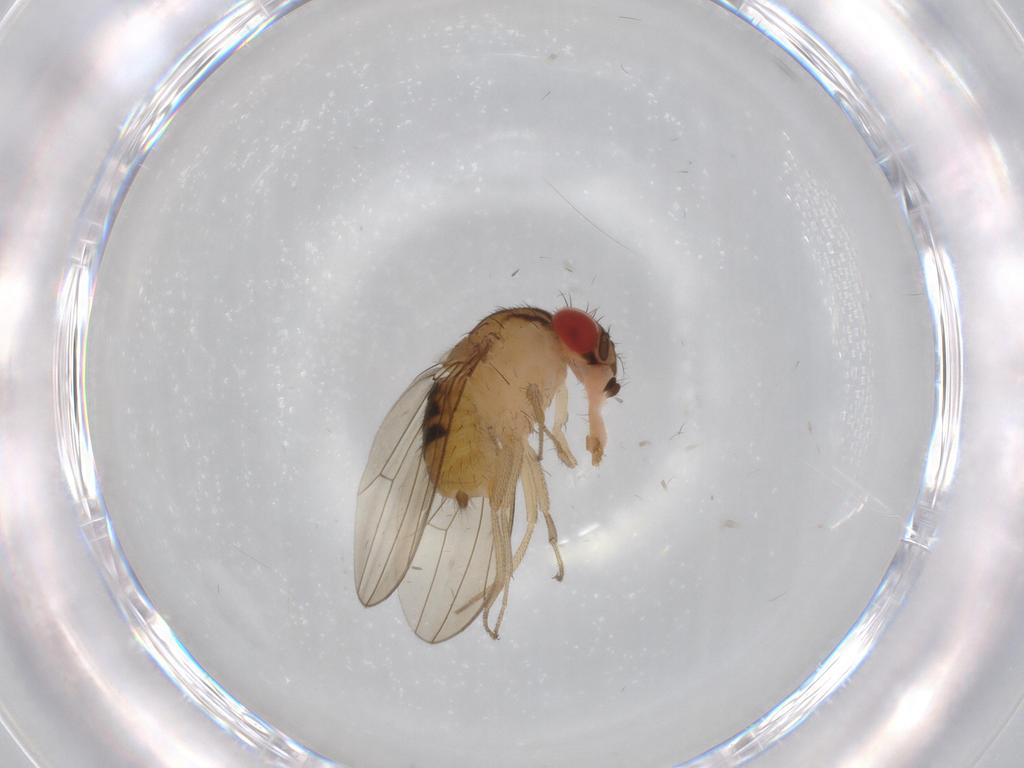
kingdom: Animalia
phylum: Arthropoda
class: Insecta
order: Diptera
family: Drosophilidae
